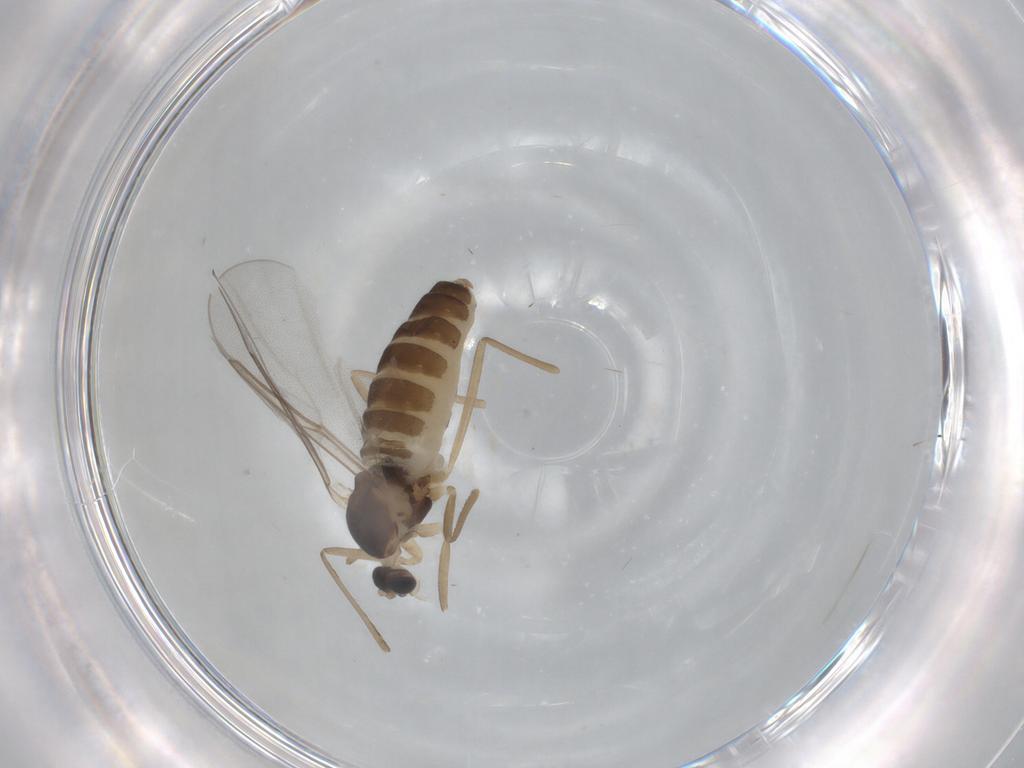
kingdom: Animalia
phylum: Arthropoda
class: Insecta
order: Diptera
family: Cecidomyiidae
